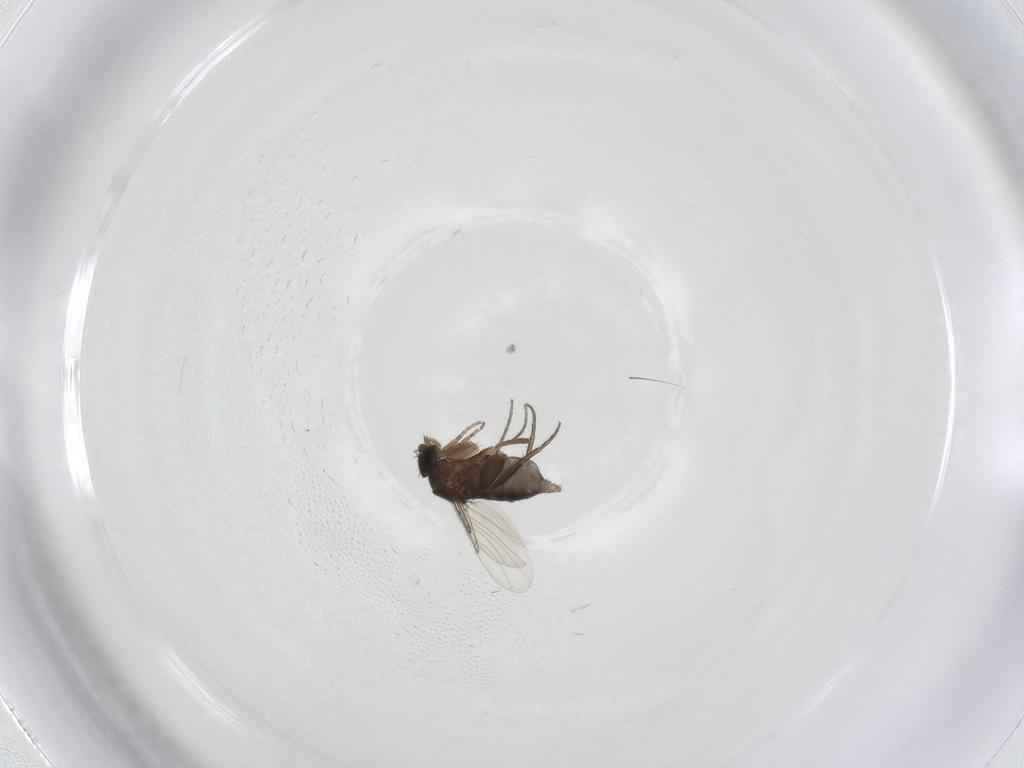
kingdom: Animalia
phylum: Arthropoda
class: Insecta
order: Diptera
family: Phoridae
